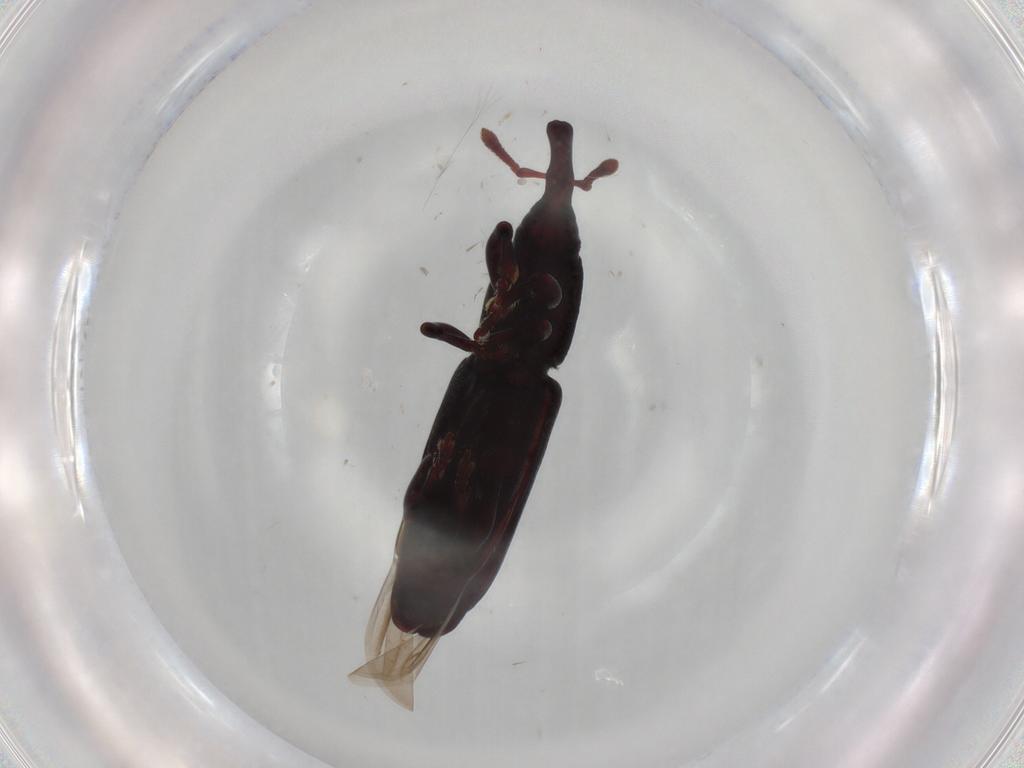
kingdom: Animalia
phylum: Arthropoda
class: Insecta
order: Coleoptera
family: Curculionidae
